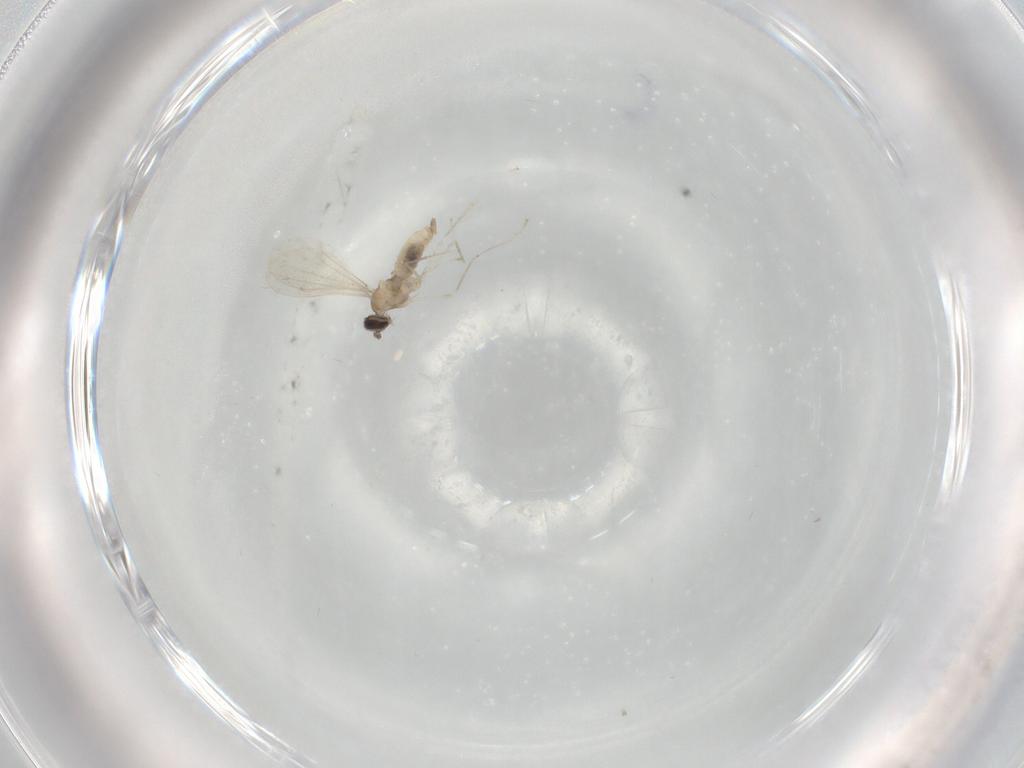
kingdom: Animalia
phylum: Arthropoda
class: Insecta
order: Diptera
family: Cecidomyiidae
